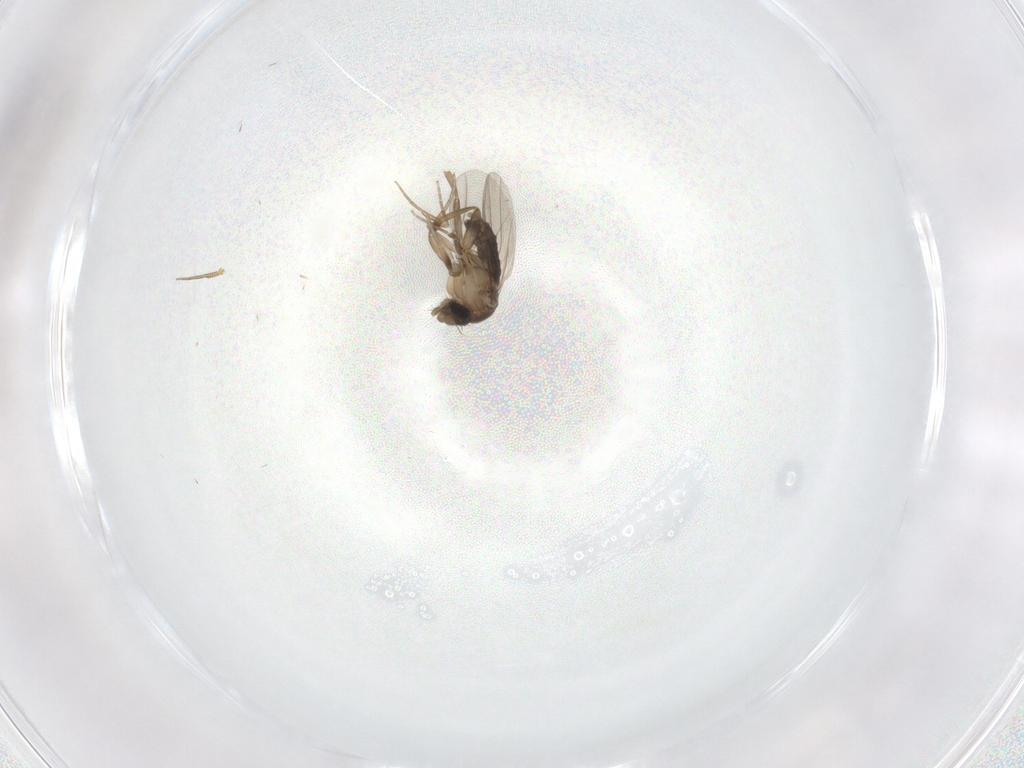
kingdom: Animalia
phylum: Arthropoda
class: Insecta
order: Diptera
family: Phoridae
